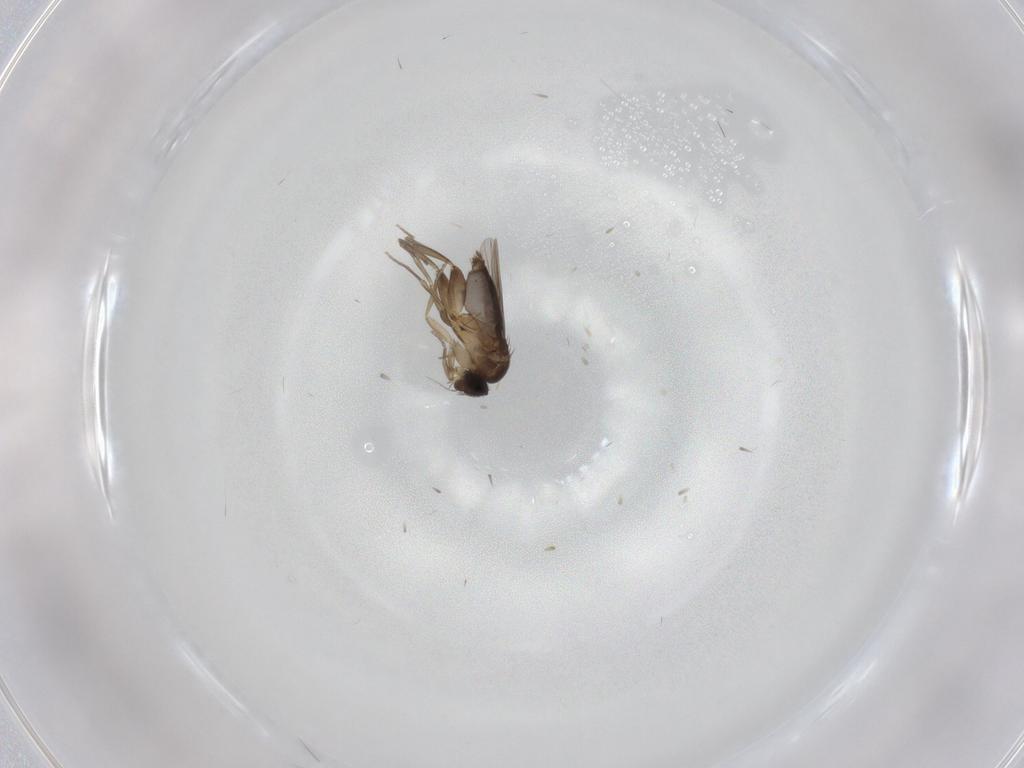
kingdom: Animalia
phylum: Arthropoda
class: Insecta
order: Diptera
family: Phoridae
